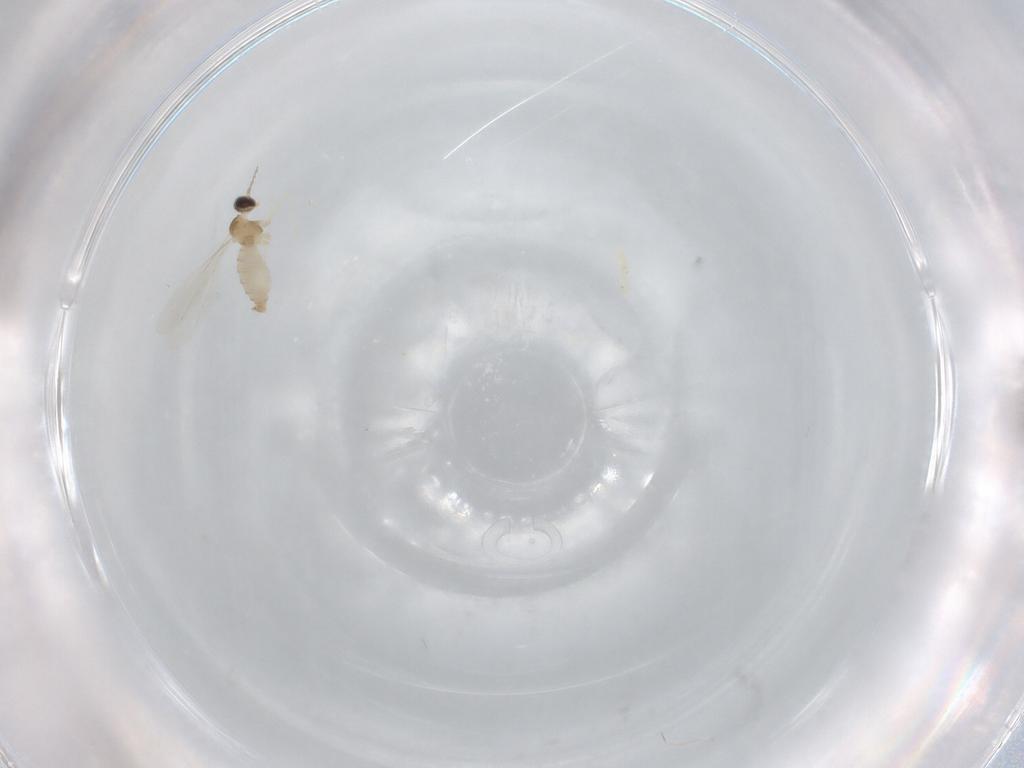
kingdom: Animalia
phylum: Arthropoda
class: Insecta
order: Diptera
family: Cecidomyiidae
